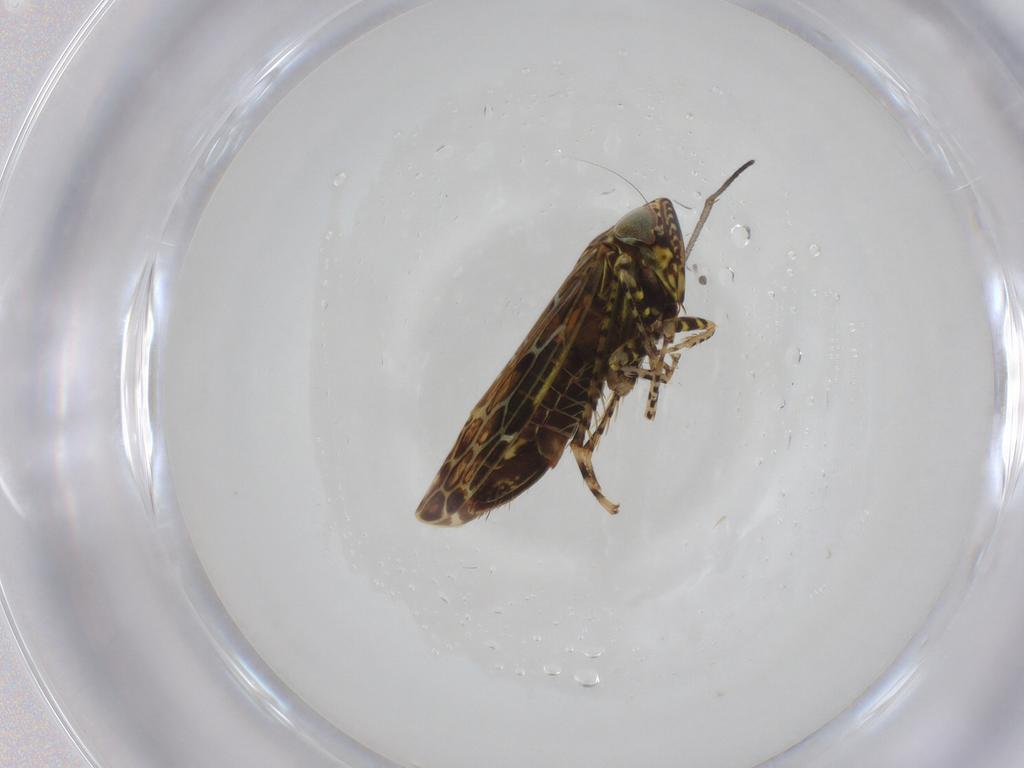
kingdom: Animalia
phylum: Arthropoda
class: Insecta
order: Hemiptera
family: Cicadellidae
